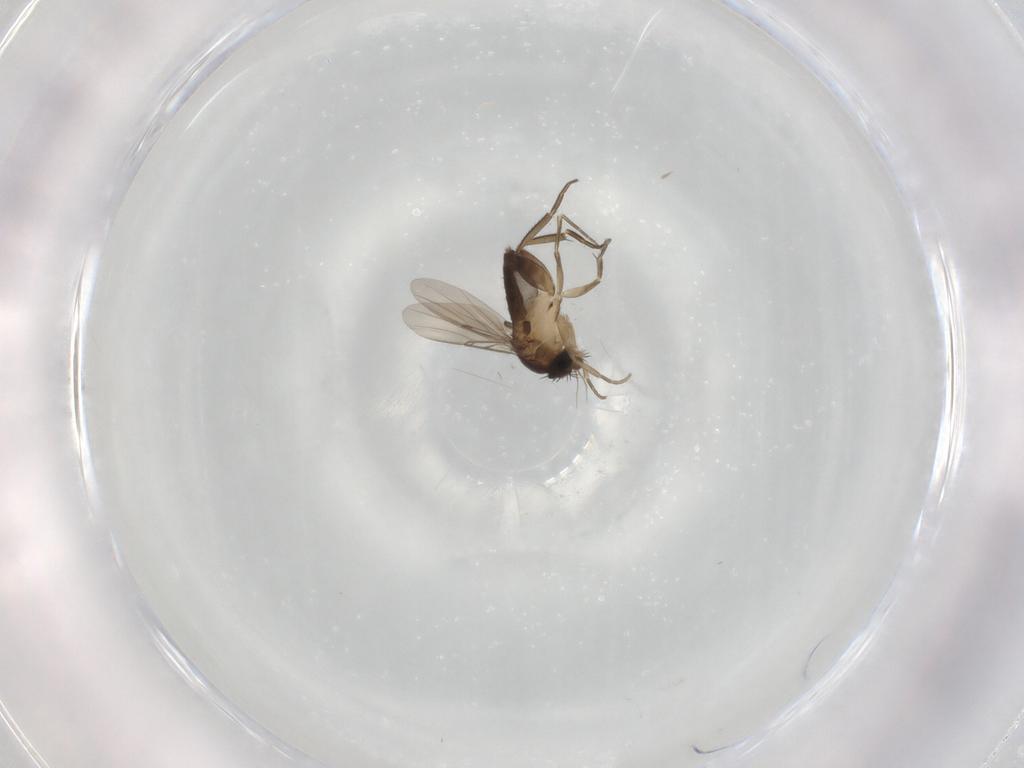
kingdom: Animalia
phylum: Arthropoda
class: Insecta
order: Diptera
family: Phoridae
